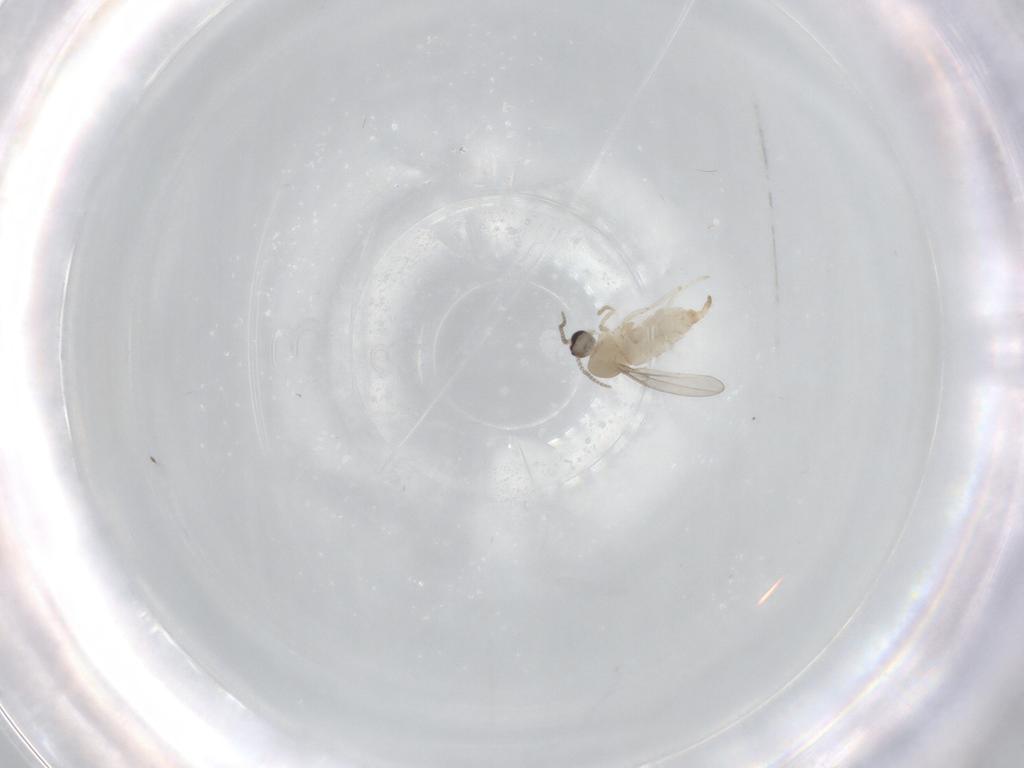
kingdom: Animalia
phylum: Arthropoda
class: Insecta
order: Diptera
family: Cecidomyiidae
